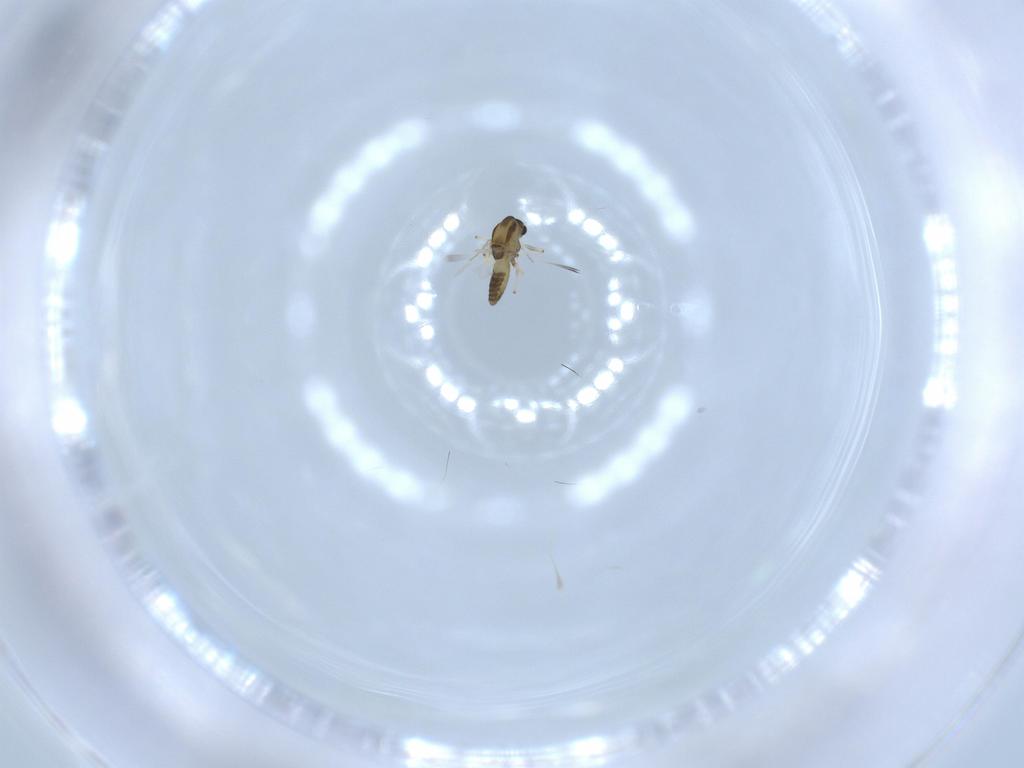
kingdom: Animalia
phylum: Arthropoda
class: Insecta
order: Diptera
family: Chironomidae
